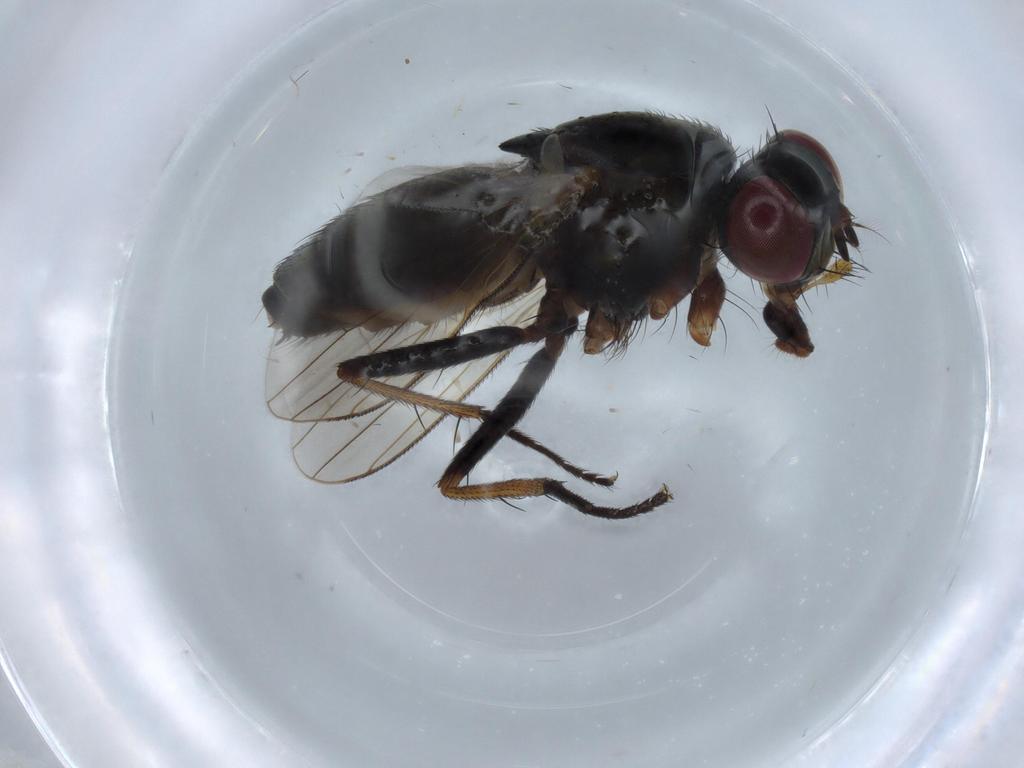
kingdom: Animalia
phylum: Arthropoda
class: Insecta
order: Diptera
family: Muscidae
